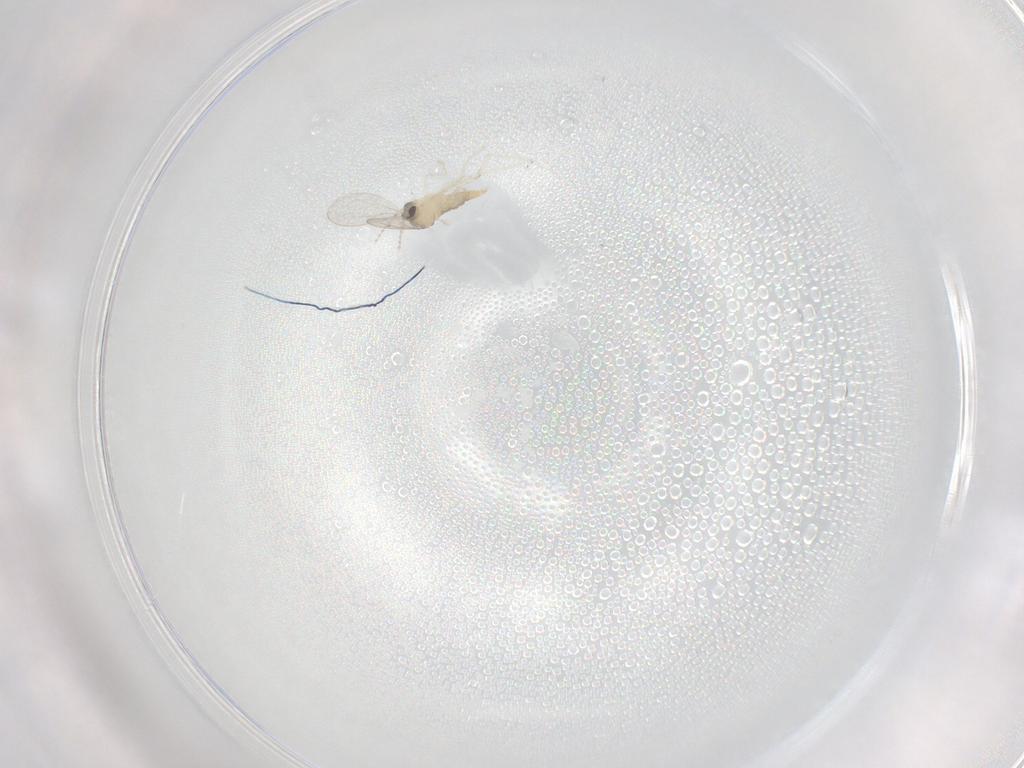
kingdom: Animalia
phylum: Arthropoda
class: Insecta
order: Diptera
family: Cecidomyiidae
